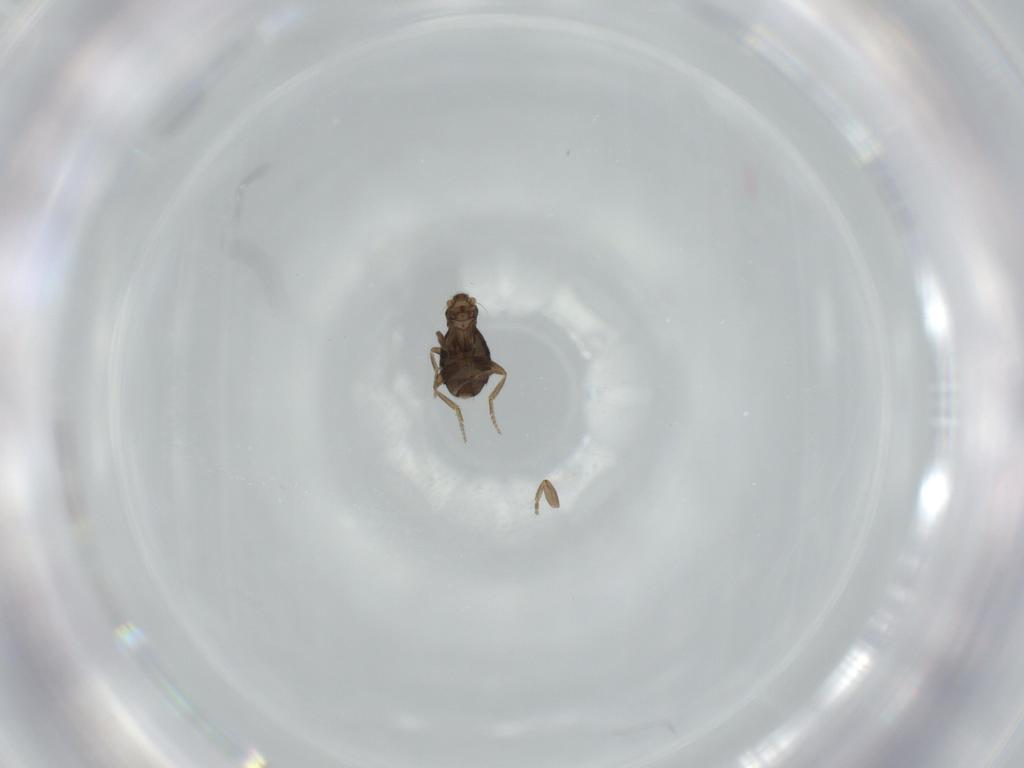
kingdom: Animalia
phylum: Arthropoda
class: Insecta
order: Diptera
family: Phoridae
